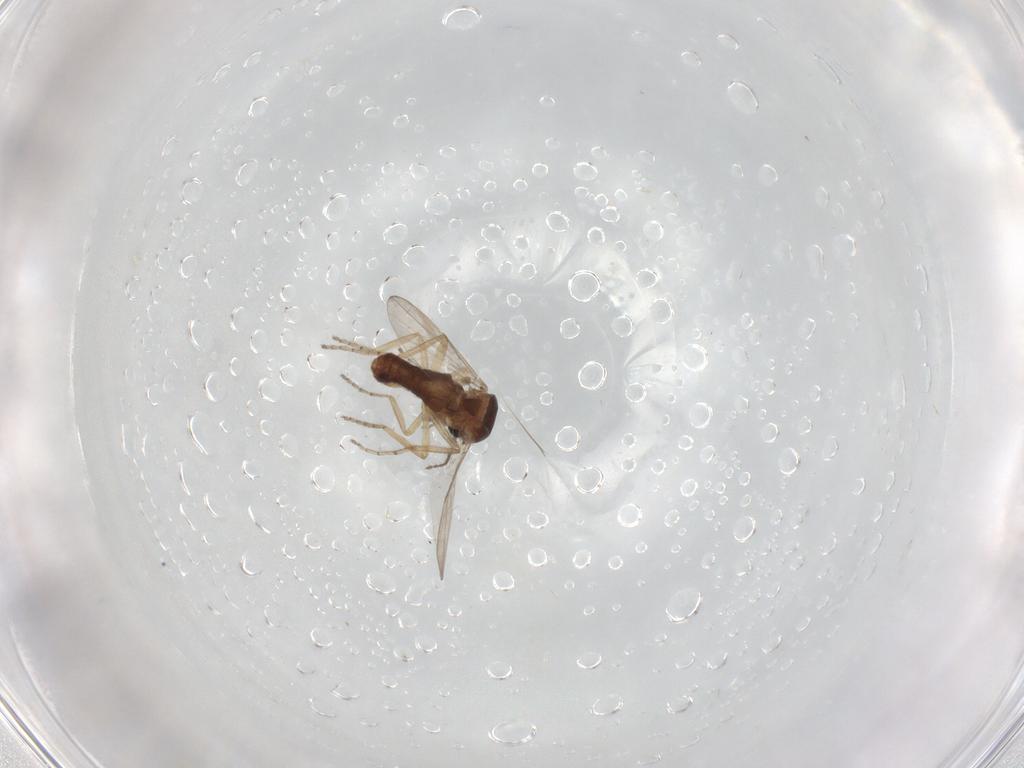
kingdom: Animalia
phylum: Arthropoda
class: Insecta
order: Diptera
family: Ceratopogonidae
